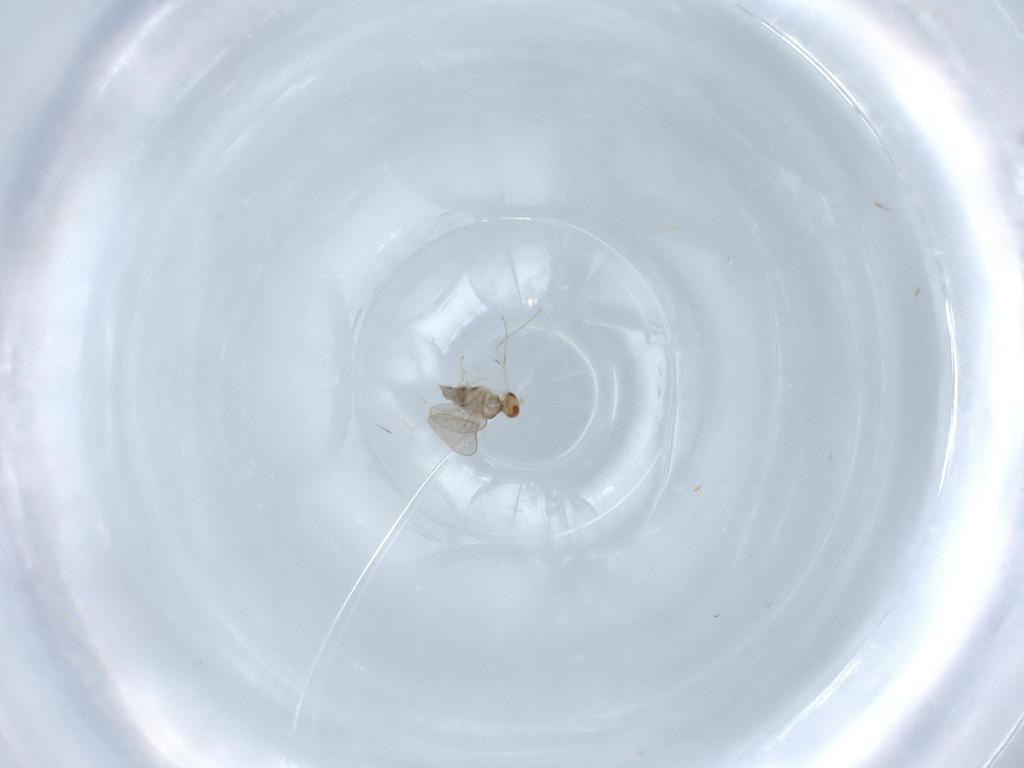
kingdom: Animalia
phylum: Arthropoda
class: Insecta
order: Diptera
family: Cecidomyiidae
